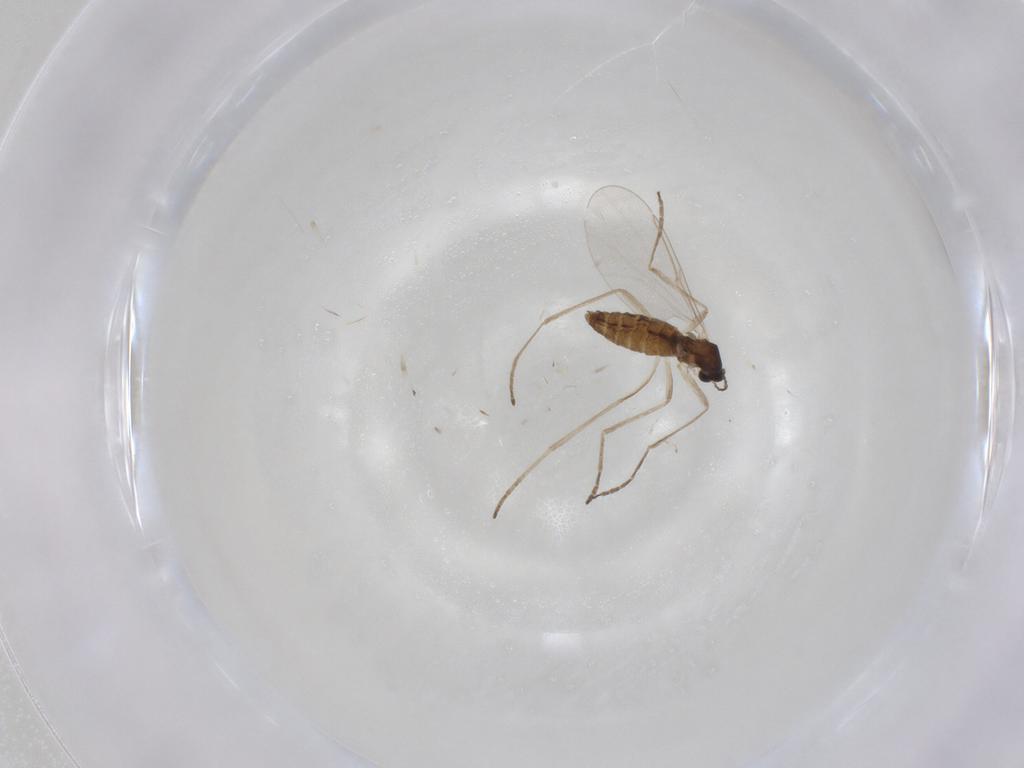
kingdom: Animalia
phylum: Arthropoda
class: Insecta
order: Diptera
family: Cecidomyiidae
